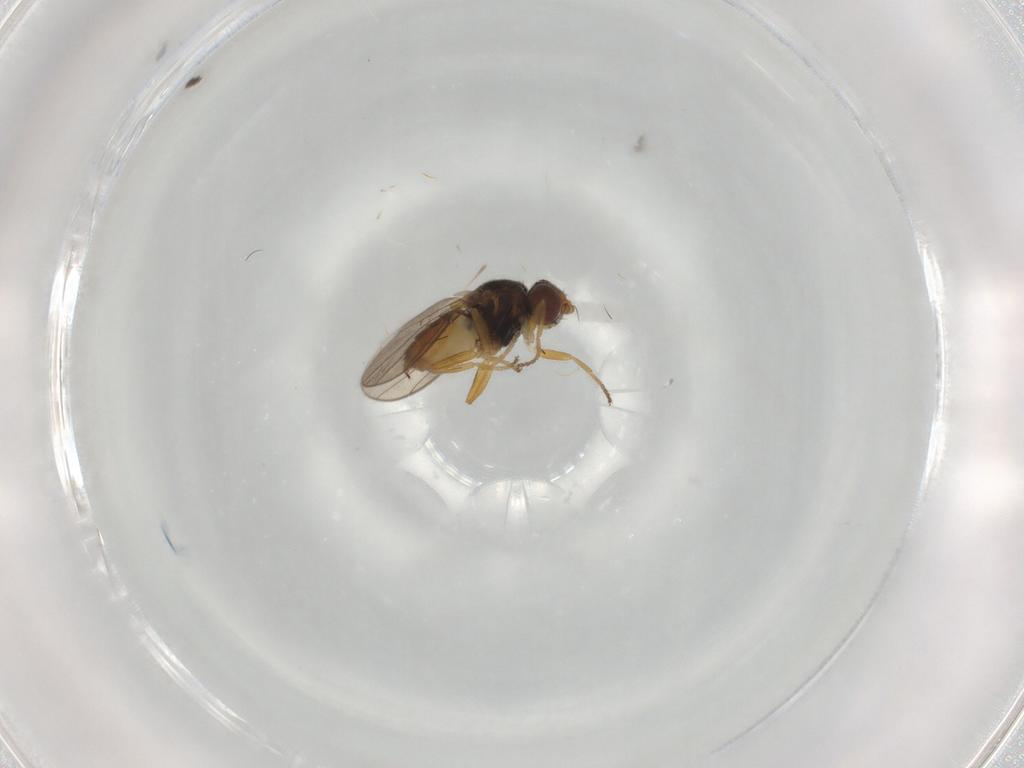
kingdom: Animalia
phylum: Arthropoda
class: Insecta
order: Diptera
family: Chloropidae
